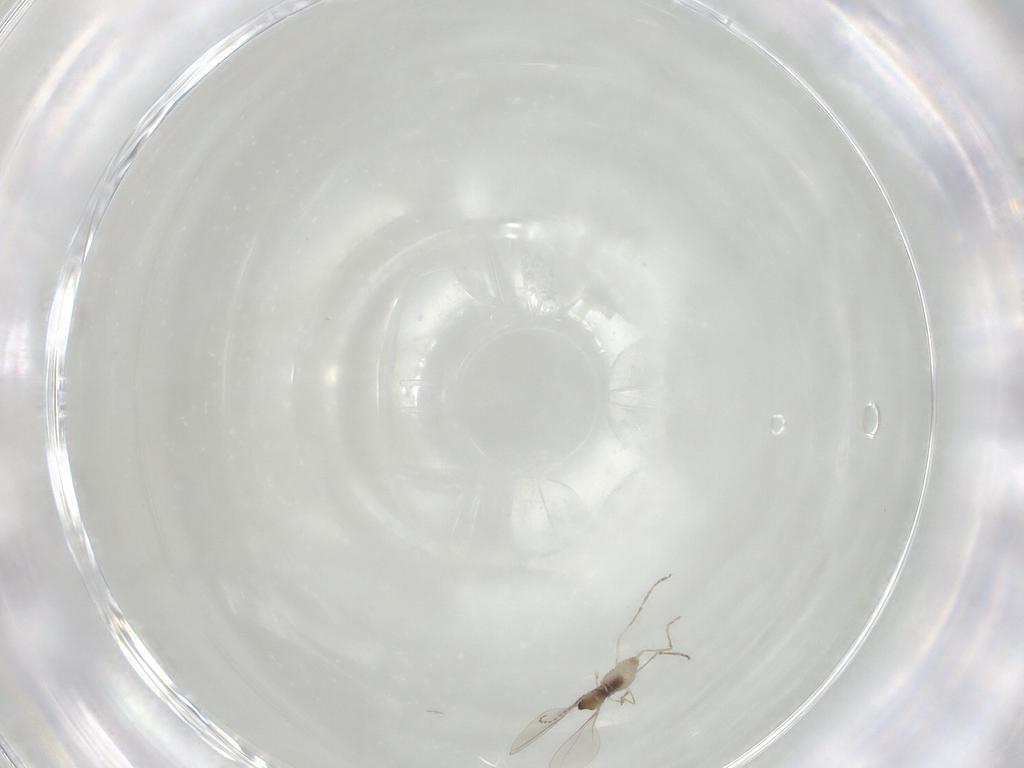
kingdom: Animalia
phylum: Arthropoda
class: Insecta
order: Diptera
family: Cecidomyiidae
